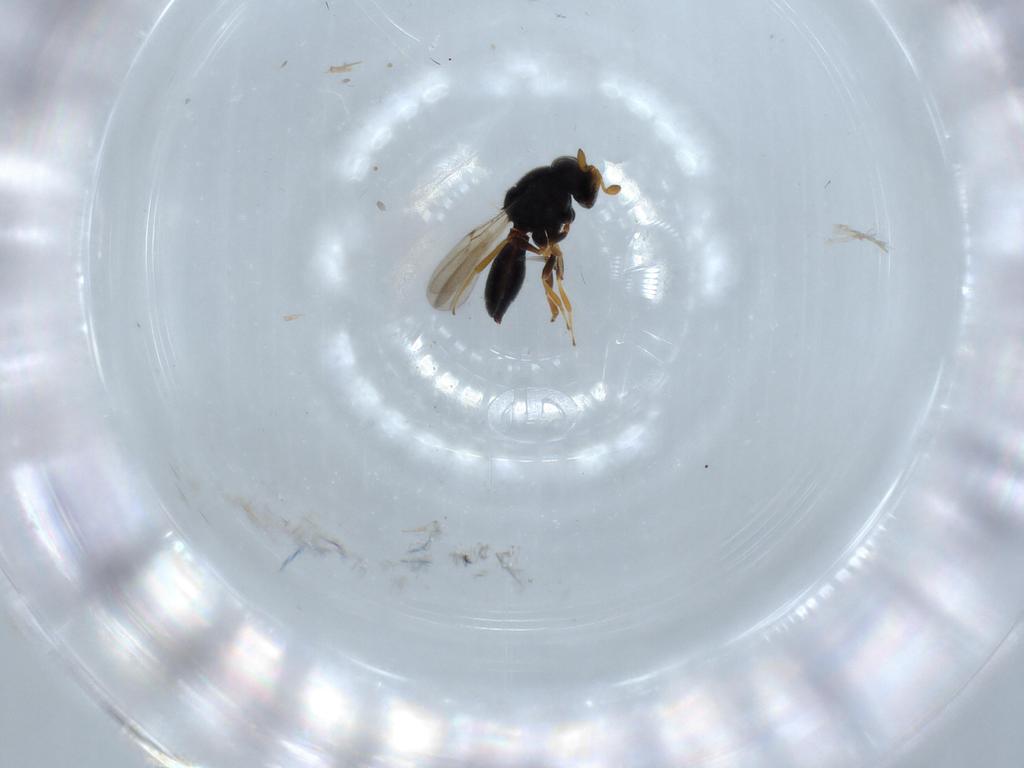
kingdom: Animalia
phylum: Arthropoda
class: Insecta
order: Hymenoptera
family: Scelionidae
